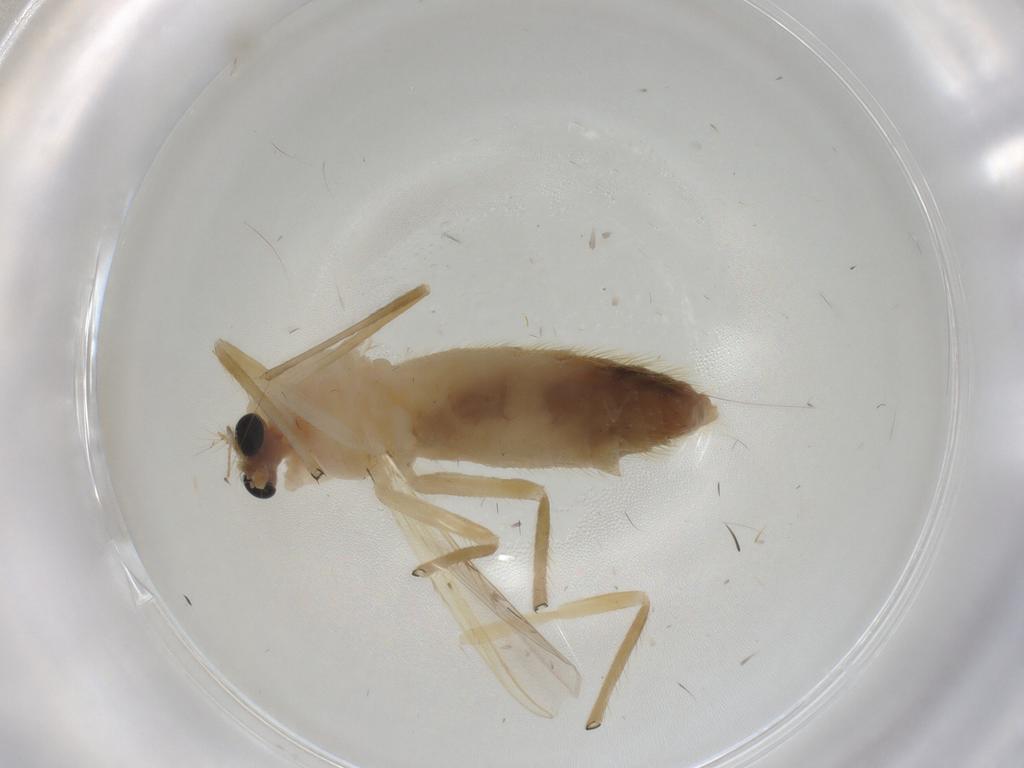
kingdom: Animalia
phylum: Arthropoda
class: Insecta
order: Diptera
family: Chironomidae
